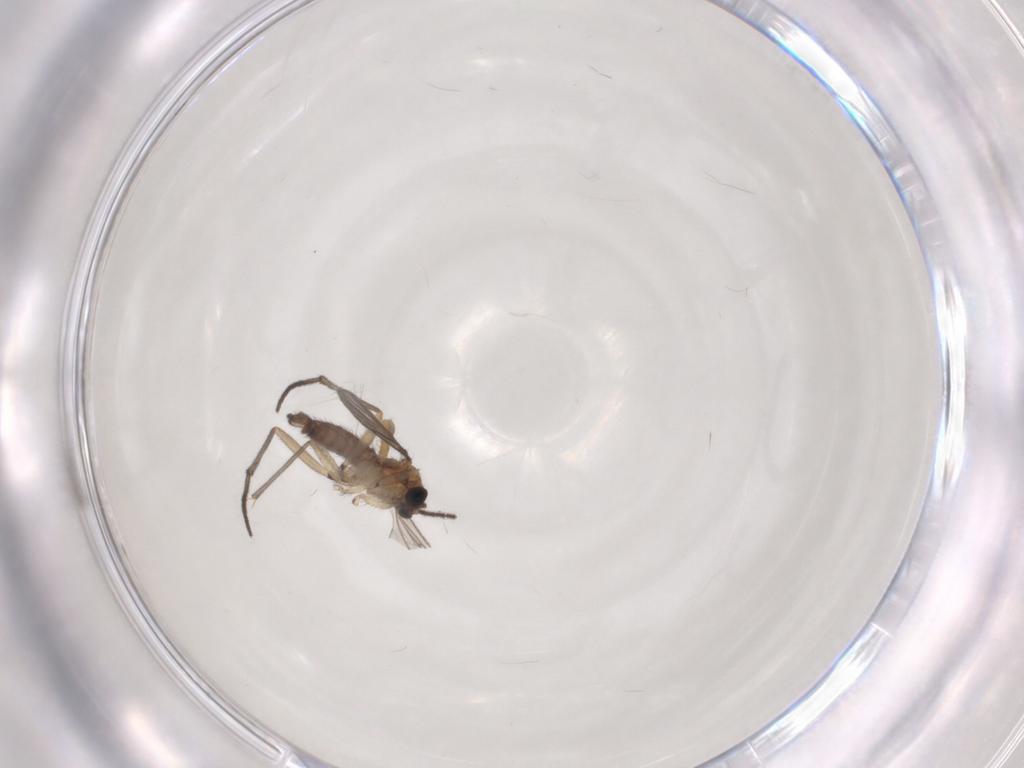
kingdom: Animalia
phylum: Arthropoda
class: Insecta
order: Diptera
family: Sciaridae
